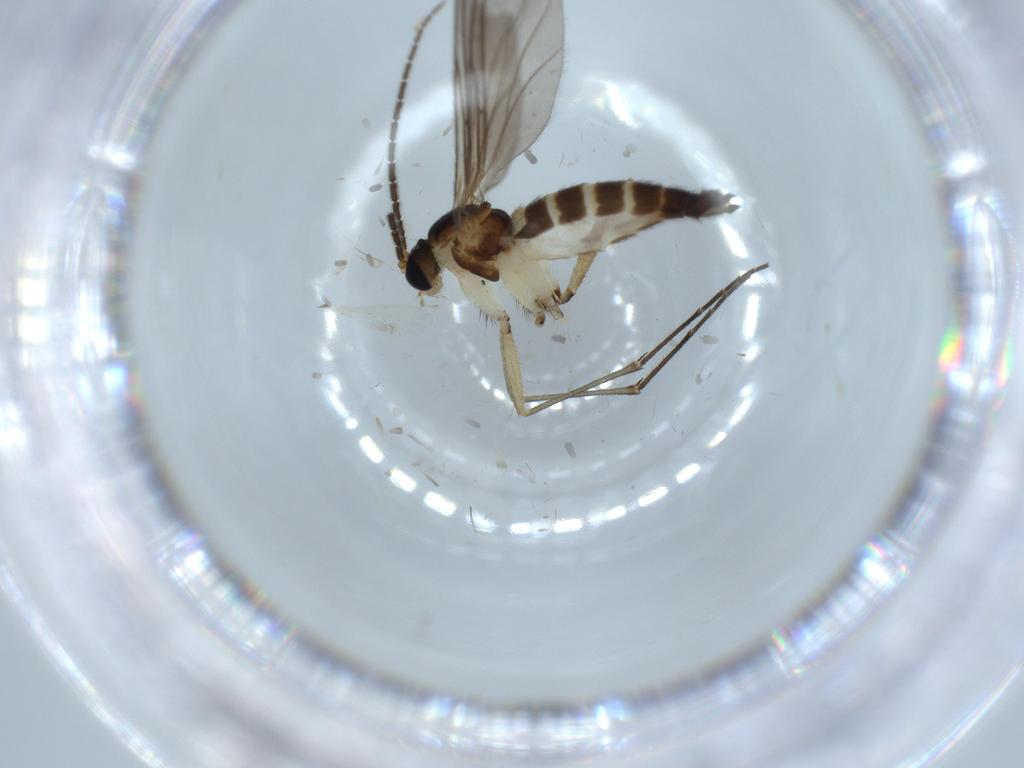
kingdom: Animalia
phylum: Arthropoda
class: Insecta
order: Diptera
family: Sciaridae
